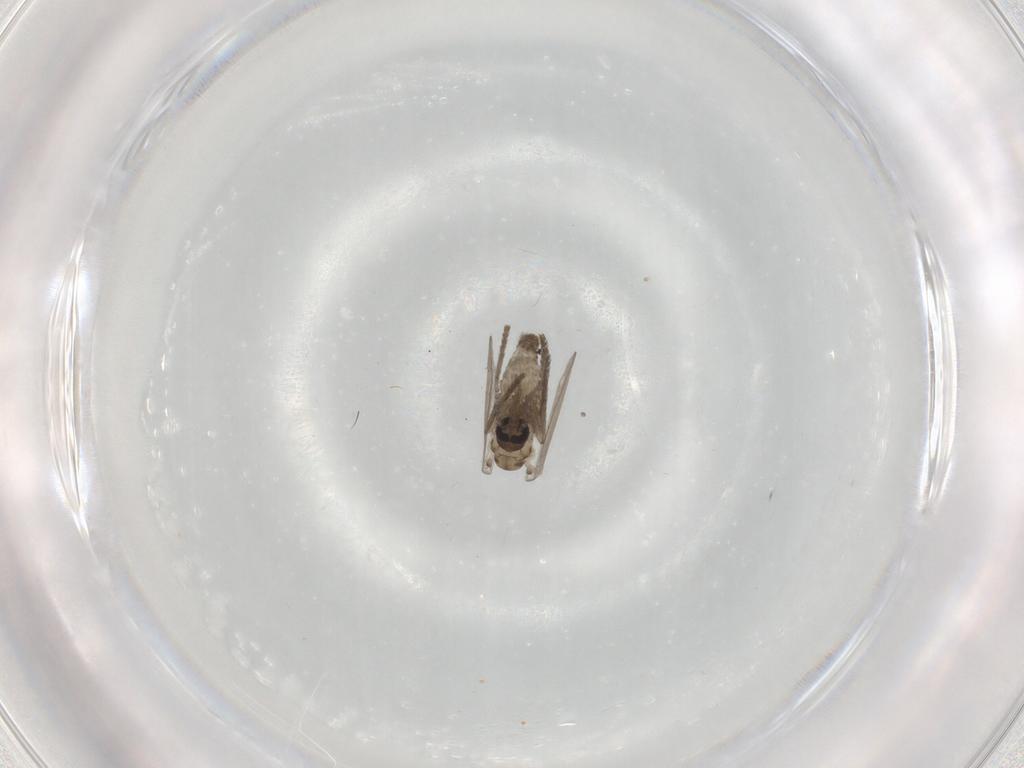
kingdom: Animalia
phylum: Arthropoda
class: Insecta
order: Diptera
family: Psychodidae
